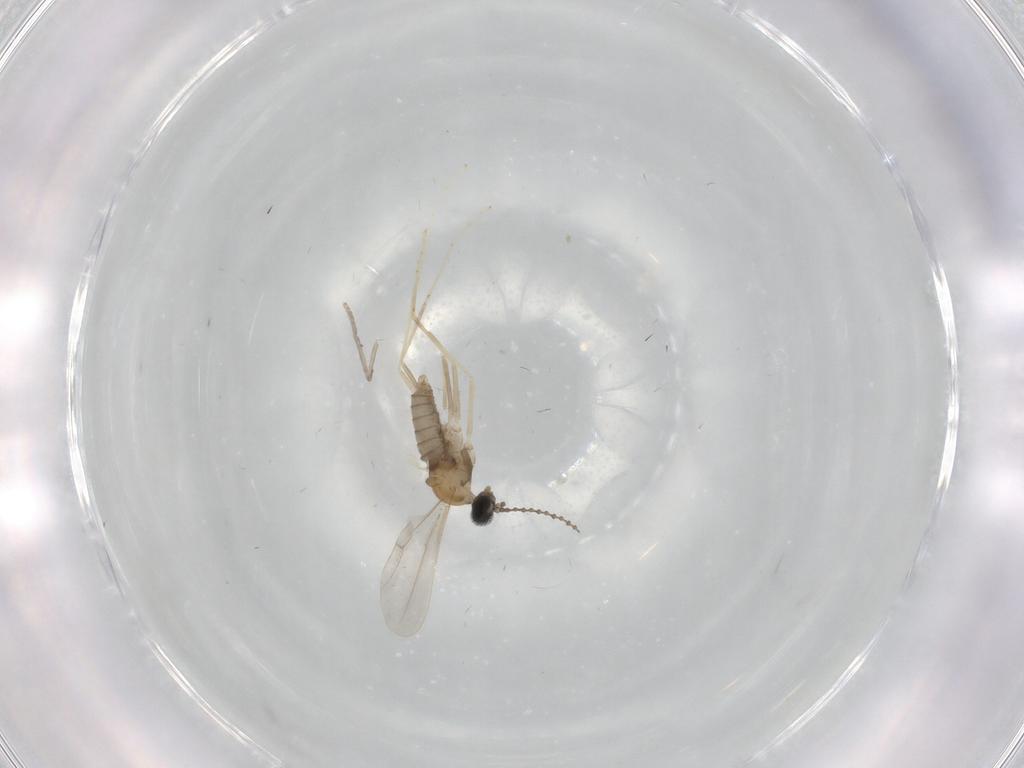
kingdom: Animalia
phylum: Arthropoda
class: Insecta
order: Diptera
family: Cecidomyiidae
